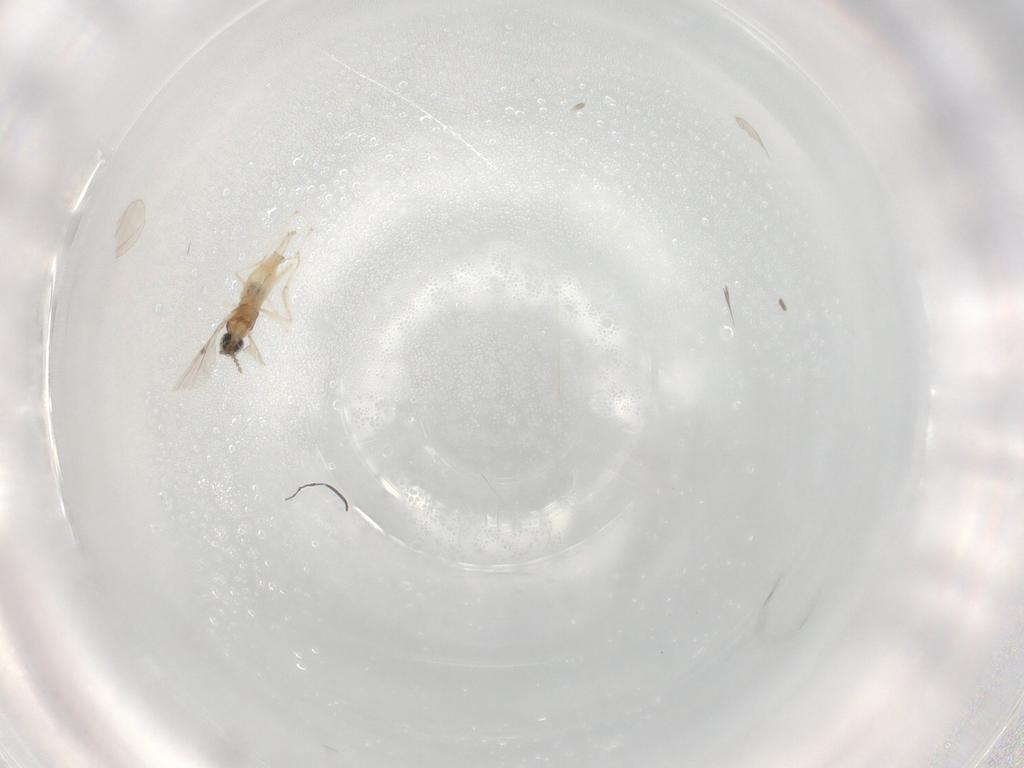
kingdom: Animalia
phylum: Arthropoda
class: Insecta
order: Diptera
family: Cecidomyiidae
